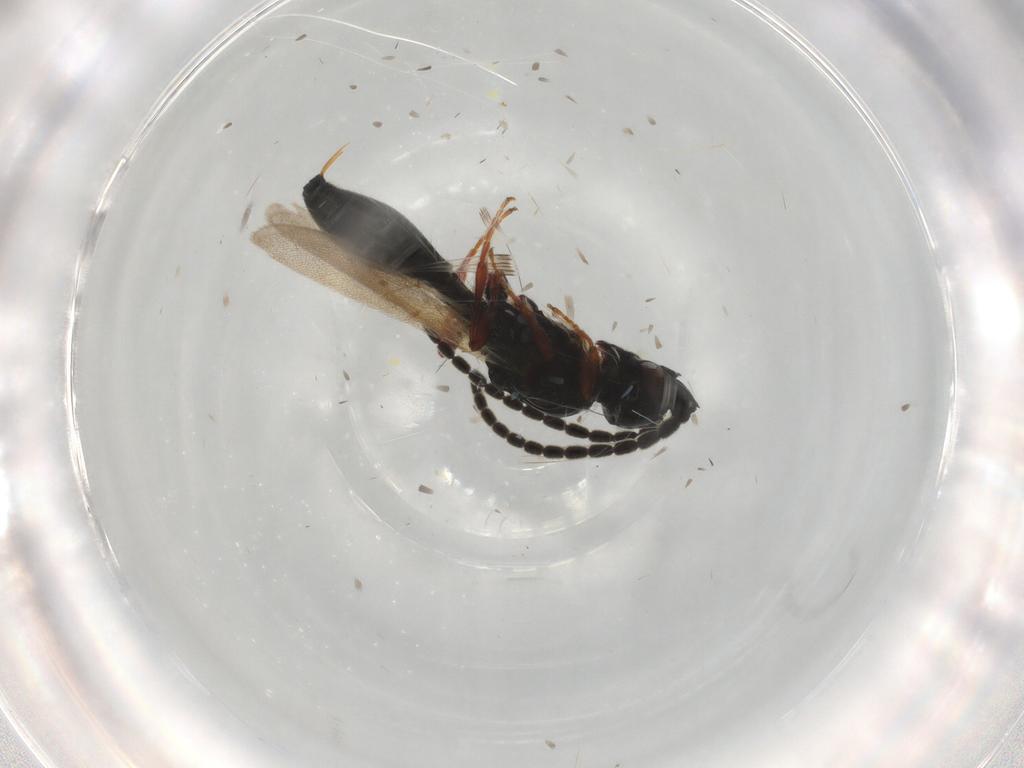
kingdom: Animalia
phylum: Arthropoda
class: Insecta
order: Hymenoptera
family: Diapriidae
